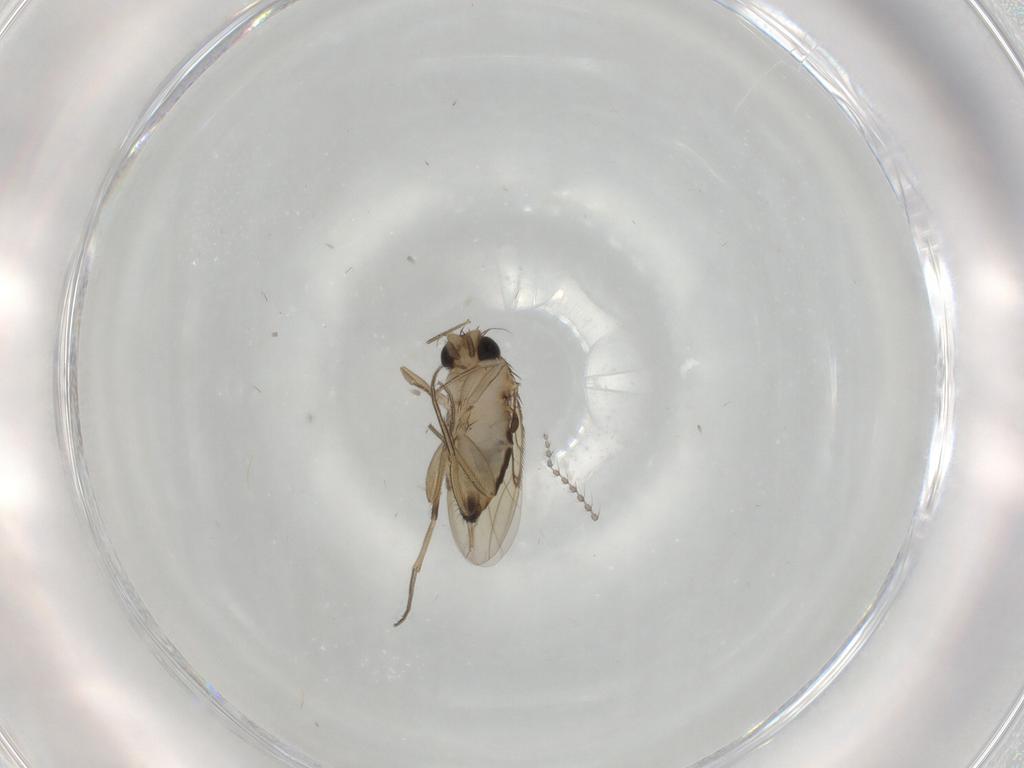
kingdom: Animalia
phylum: Arthropoda
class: Insecta
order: Diptera
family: Phoridae
